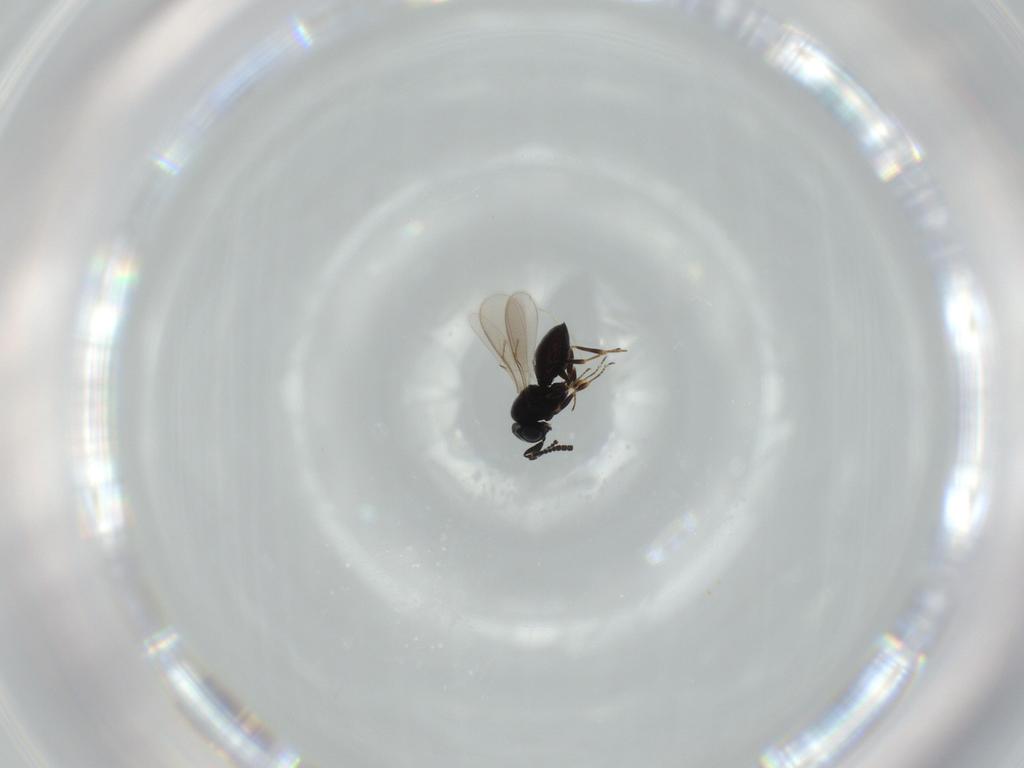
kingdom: Animalia
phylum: Arthropoda
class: Insecta
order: Hymenoptera
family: Scelionidae
